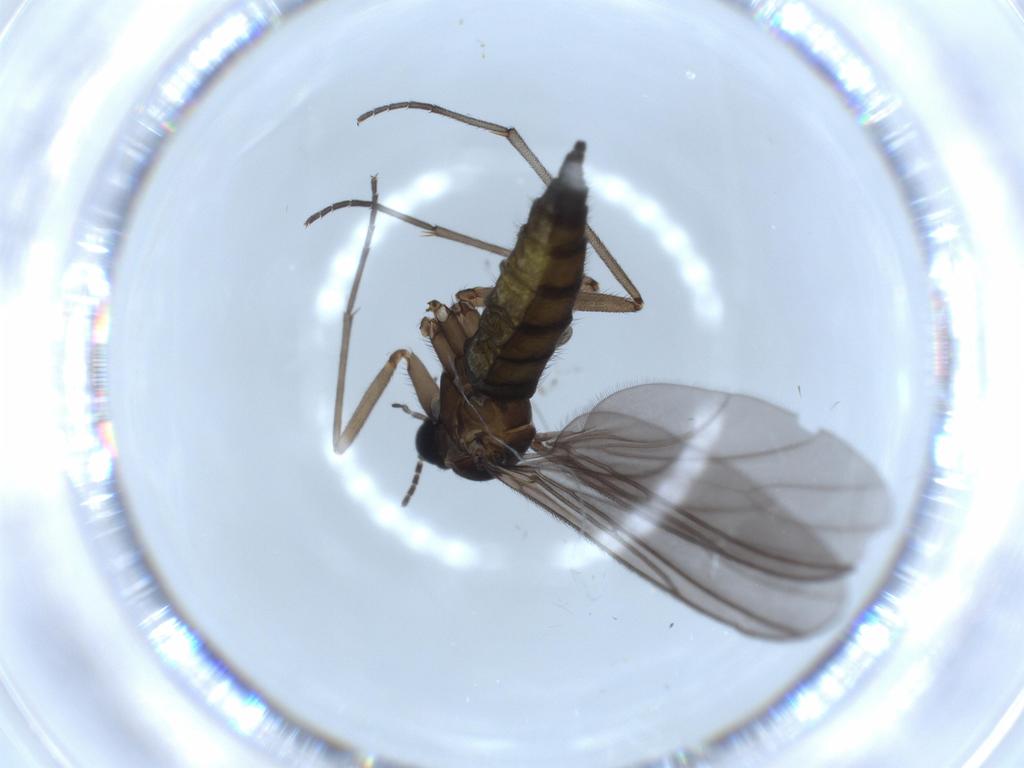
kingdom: Animalia
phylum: Arthropoda
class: Insecta
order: Diptera
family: Sciaridae
